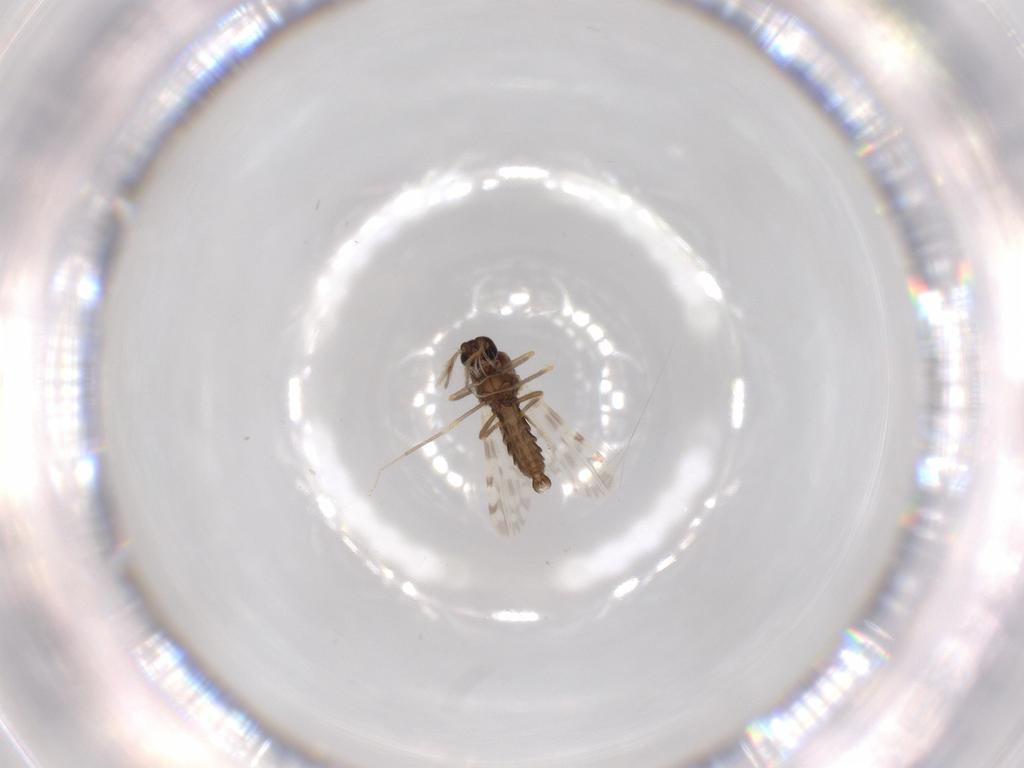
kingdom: Animalia
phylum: Arthropoda
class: Insecta
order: Diptera
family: Ceratopogonidae
